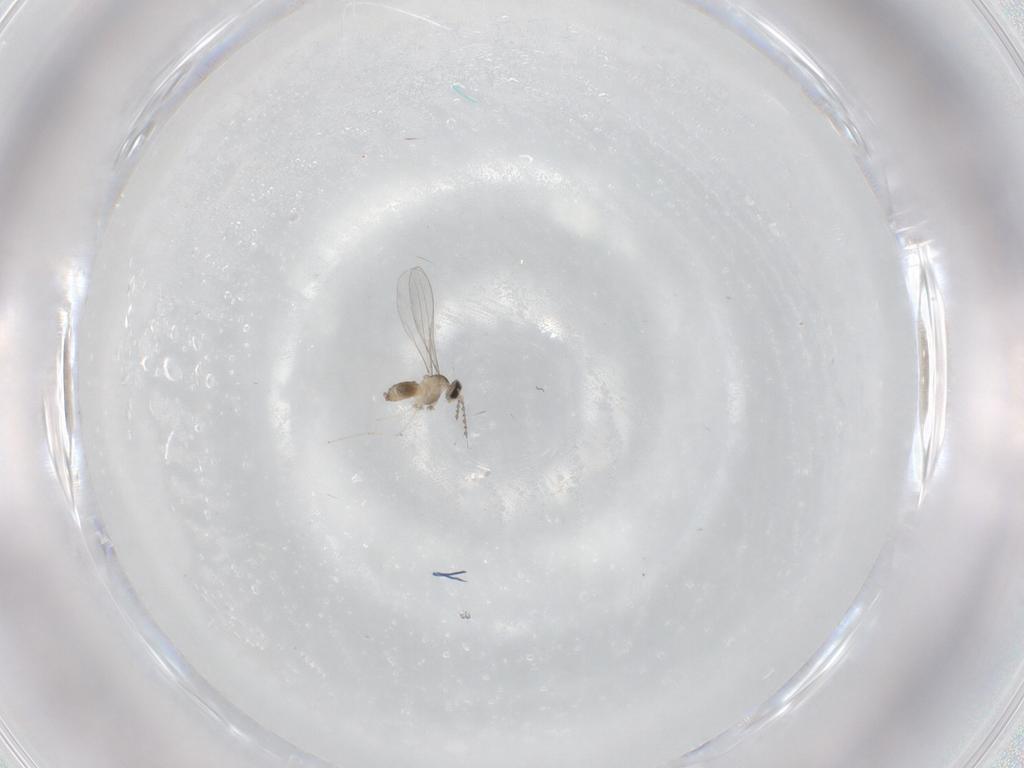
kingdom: Animalia
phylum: Arthropoda
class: Insecta
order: Diptera
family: Cecidomyiidae
